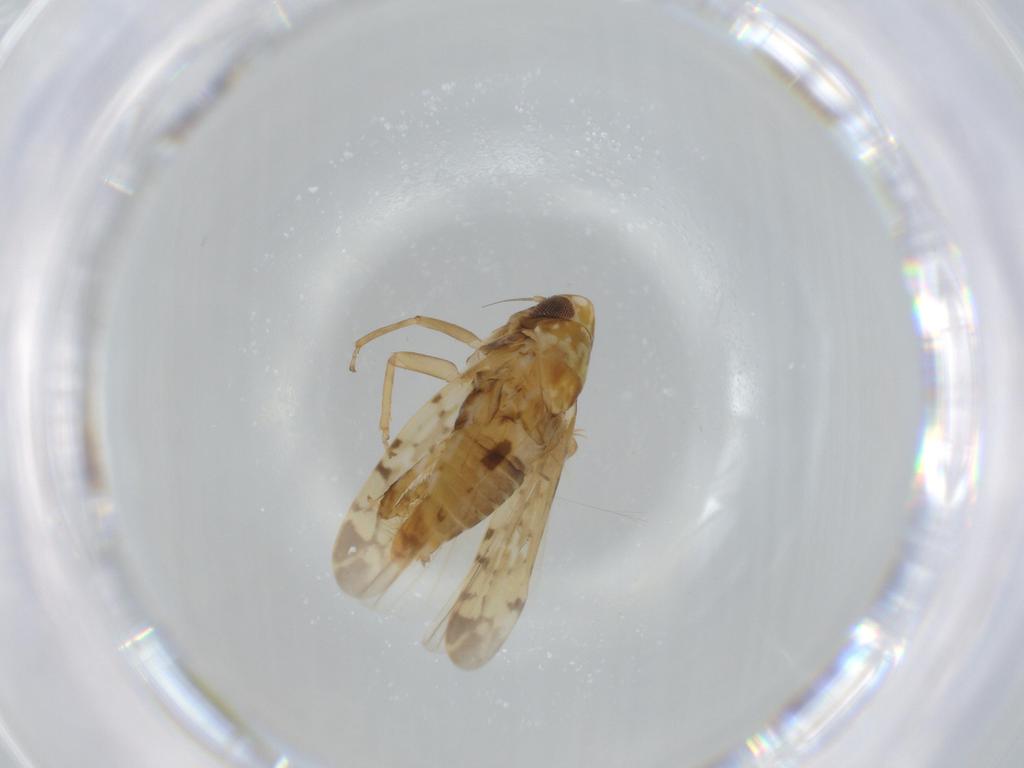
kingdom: Animalia
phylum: Arthropoda
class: Insecta
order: Hemiptera
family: Cicadellidae
